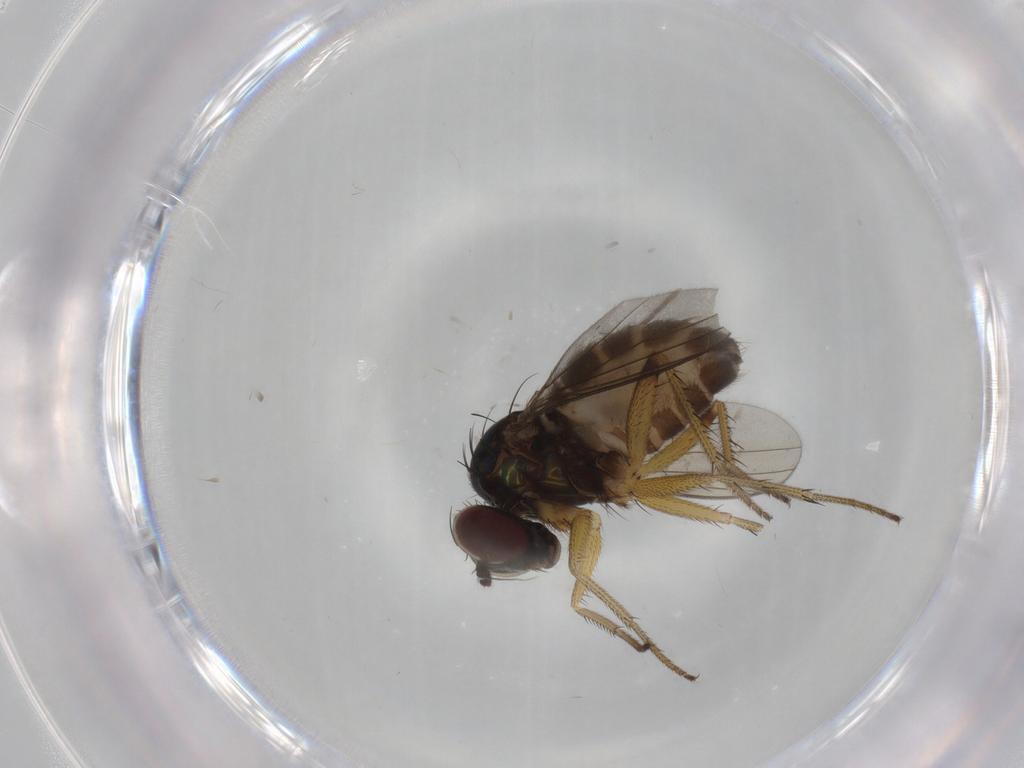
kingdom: Animalia
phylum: Arthropoda
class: Insecta
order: Diptera
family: Dolichopodidae
